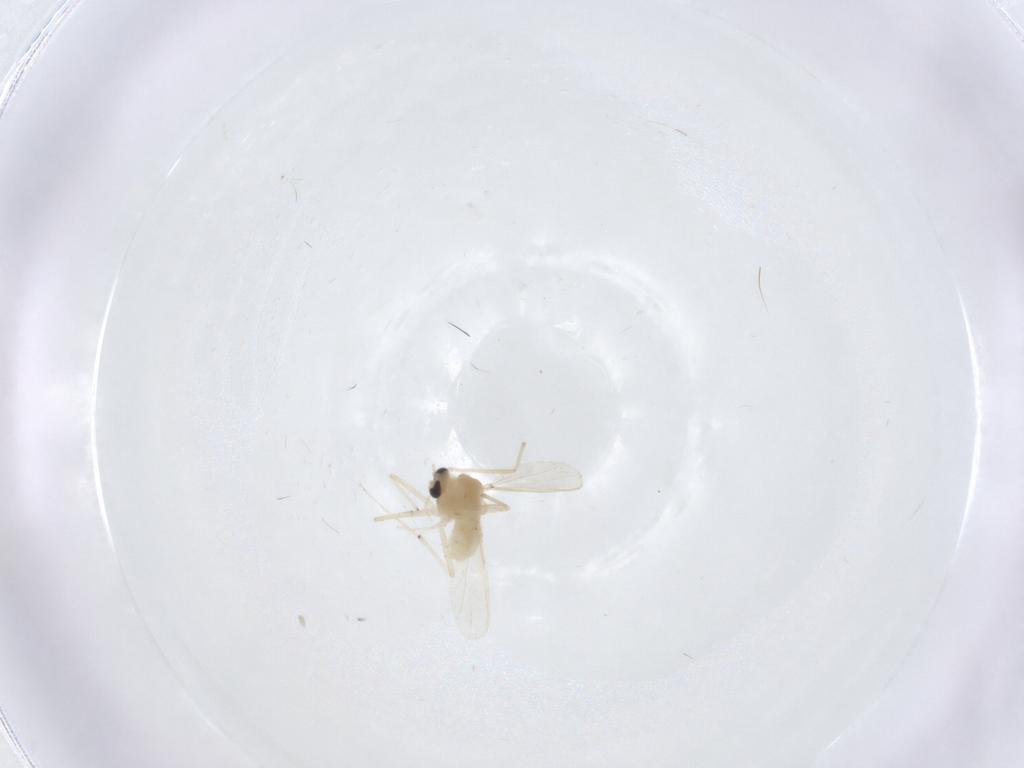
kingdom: Animalia
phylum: Arthropoda
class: Insecta
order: Diptera
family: Chironomidae
